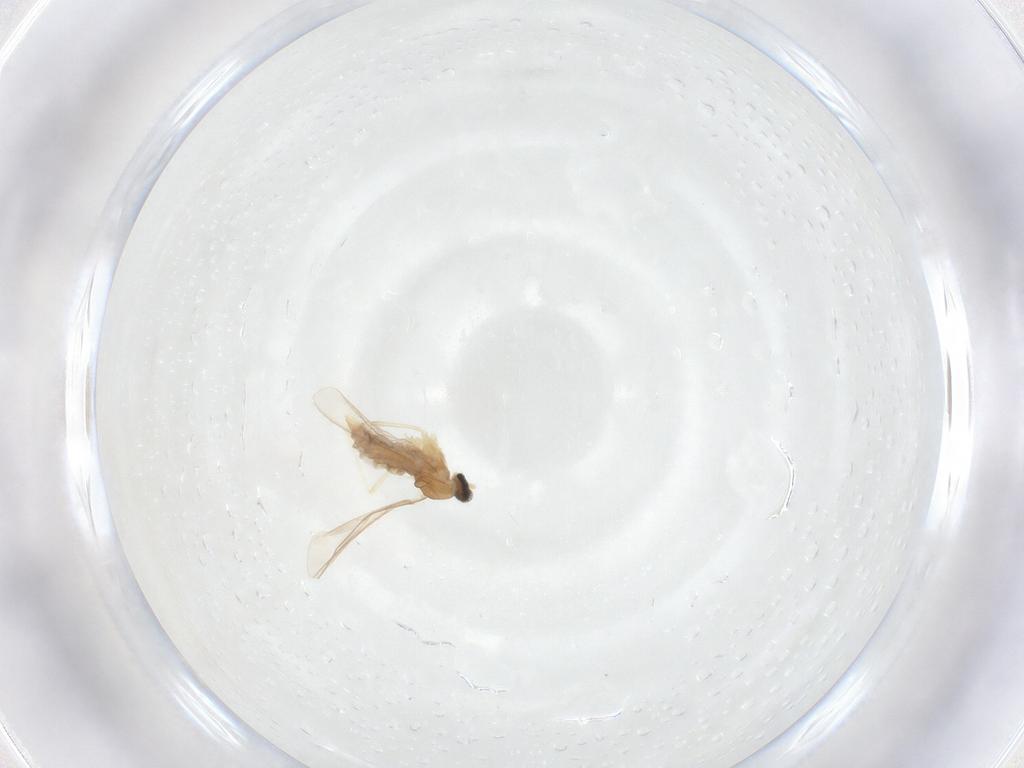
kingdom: Animalia
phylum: Arthropoda
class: Insecta
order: Diptera
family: Cecidomyiidae
